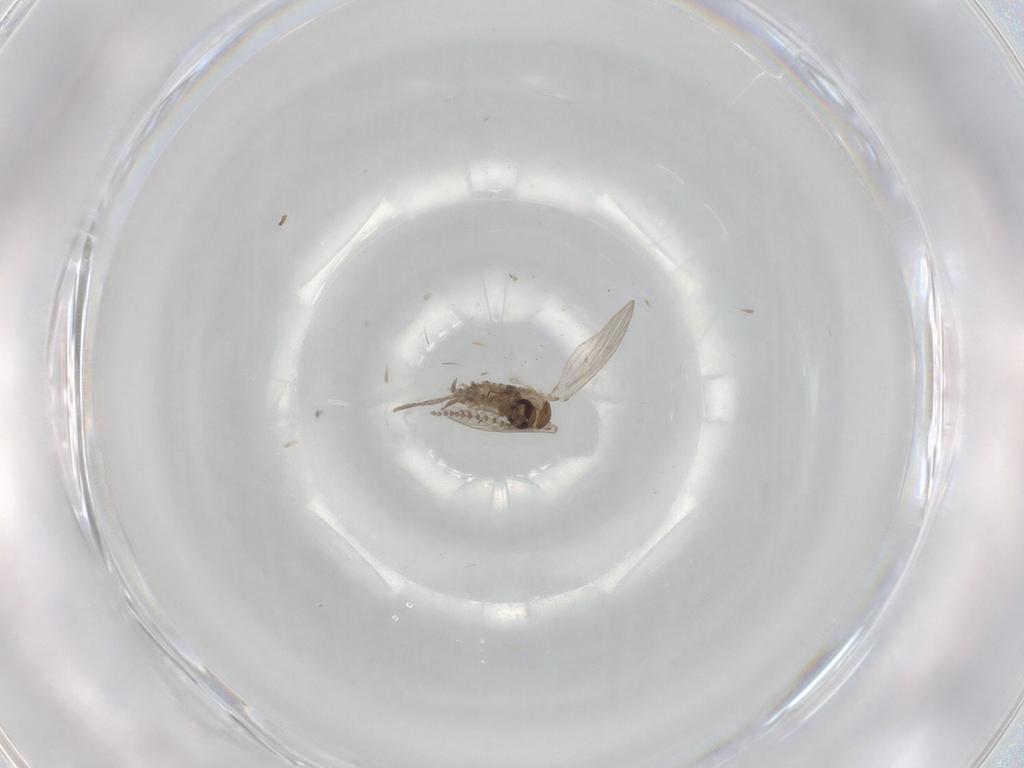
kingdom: Animalia
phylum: Arthropoda
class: Insecta
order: Diptera
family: Psychodidae
